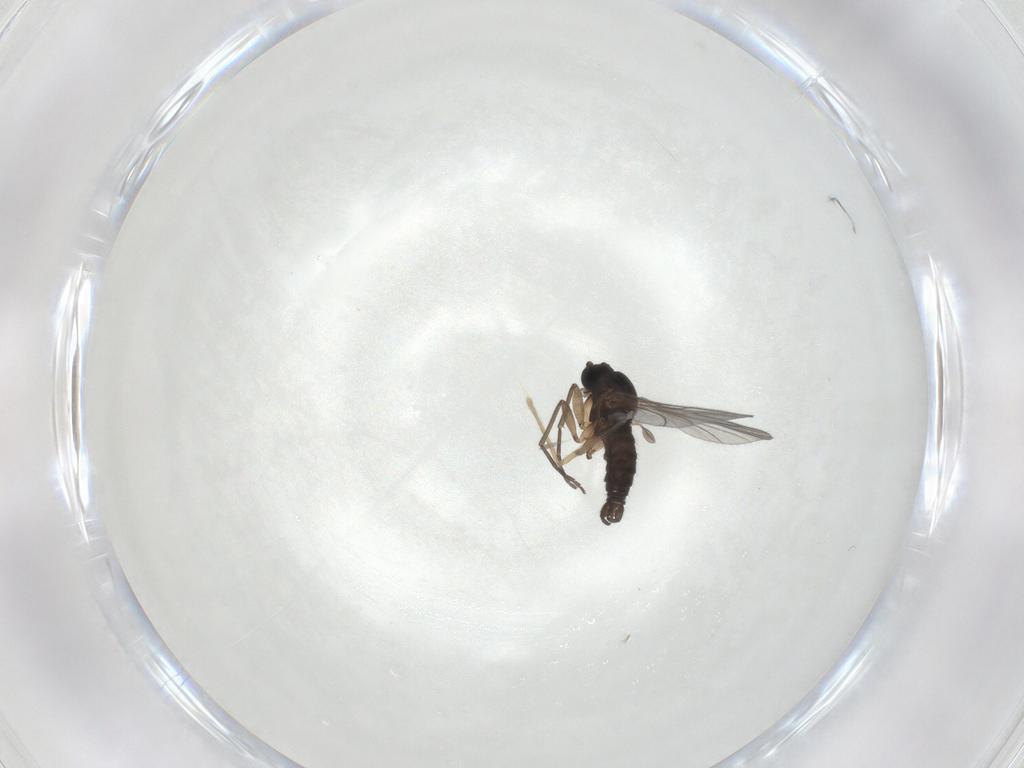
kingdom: Animalia
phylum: Arthropoda
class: Insecta
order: Diptera
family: Sciaridae
